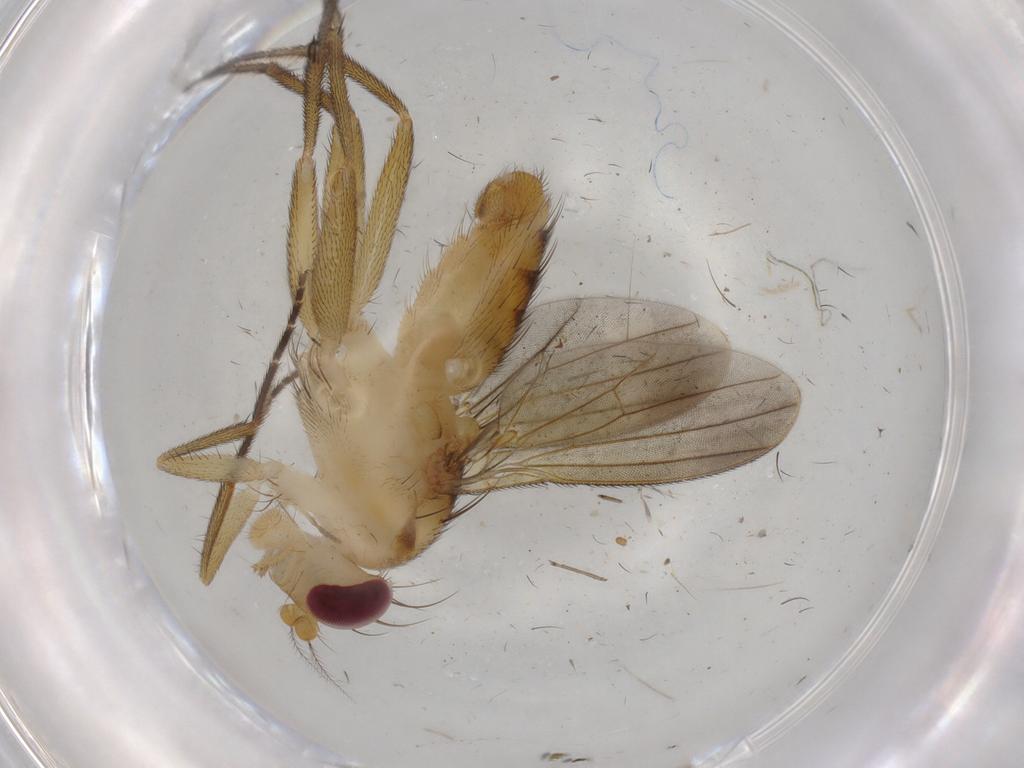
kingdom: Animalia
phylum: Arthropoda
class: Insecta
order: Diptera
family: Clusiidae
